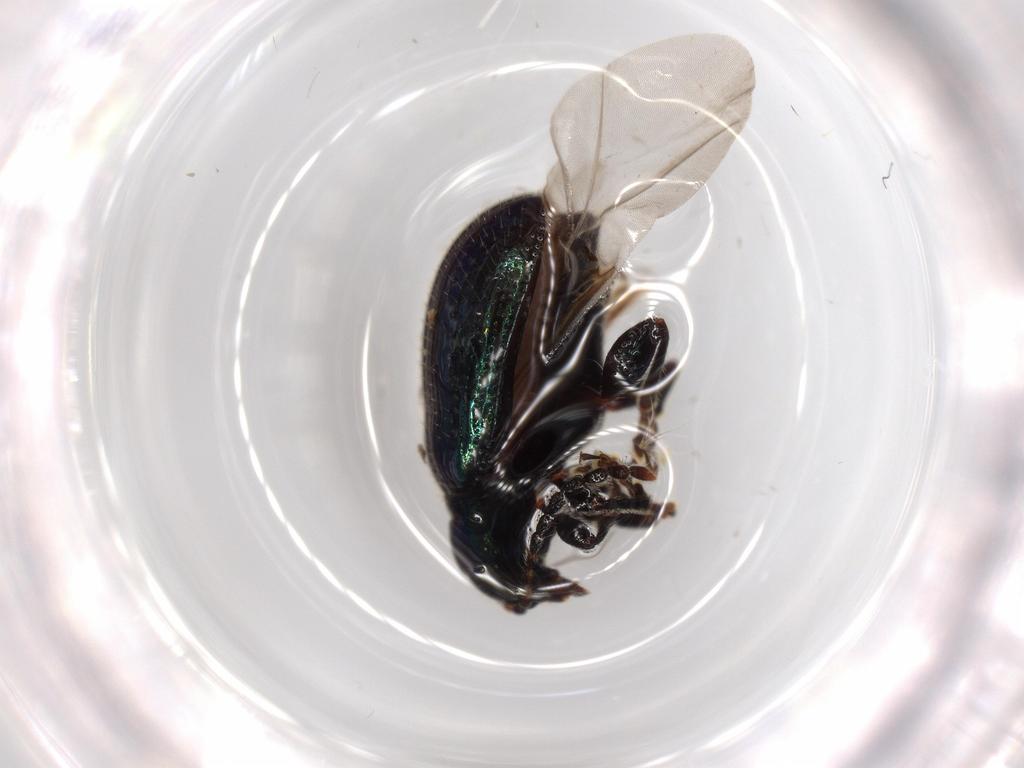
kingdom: Animalia
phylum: Arthropoda
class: Insecta
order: Coleoptera
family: Chrysomelidae
